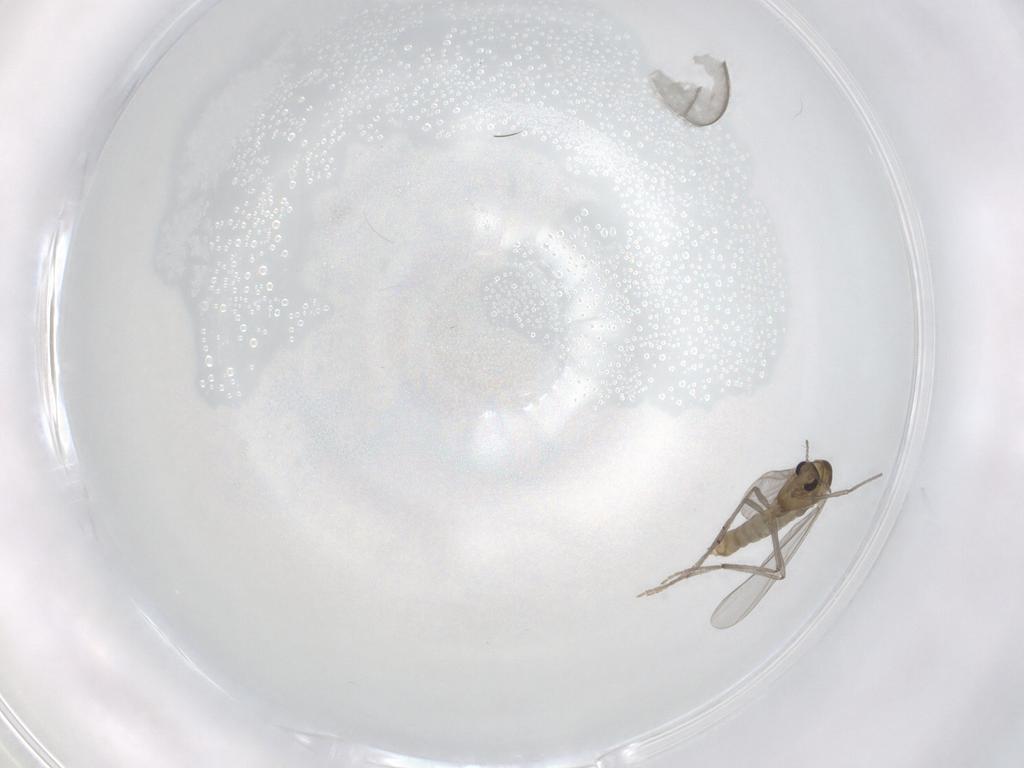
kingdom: Animalia
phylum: Arthropoda
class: Insecta
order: Diptera
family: Chironomidae
